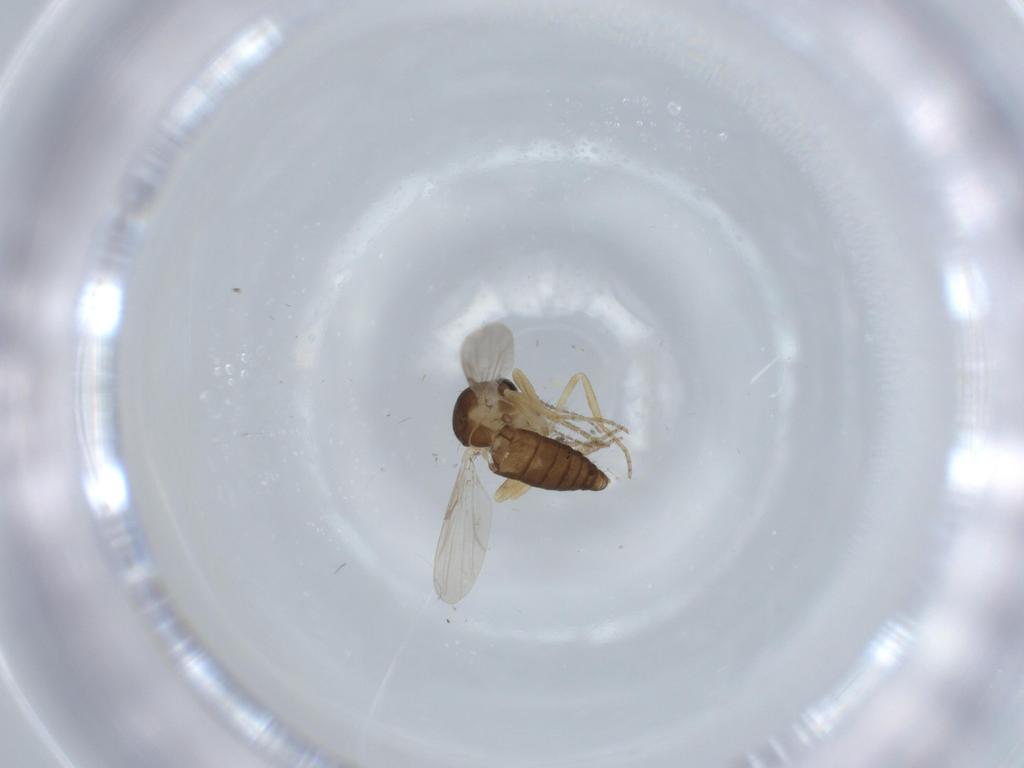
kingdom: Animalia
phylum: Arthropoda
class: Insecta
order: Diptera
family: Ceratopogonidae
